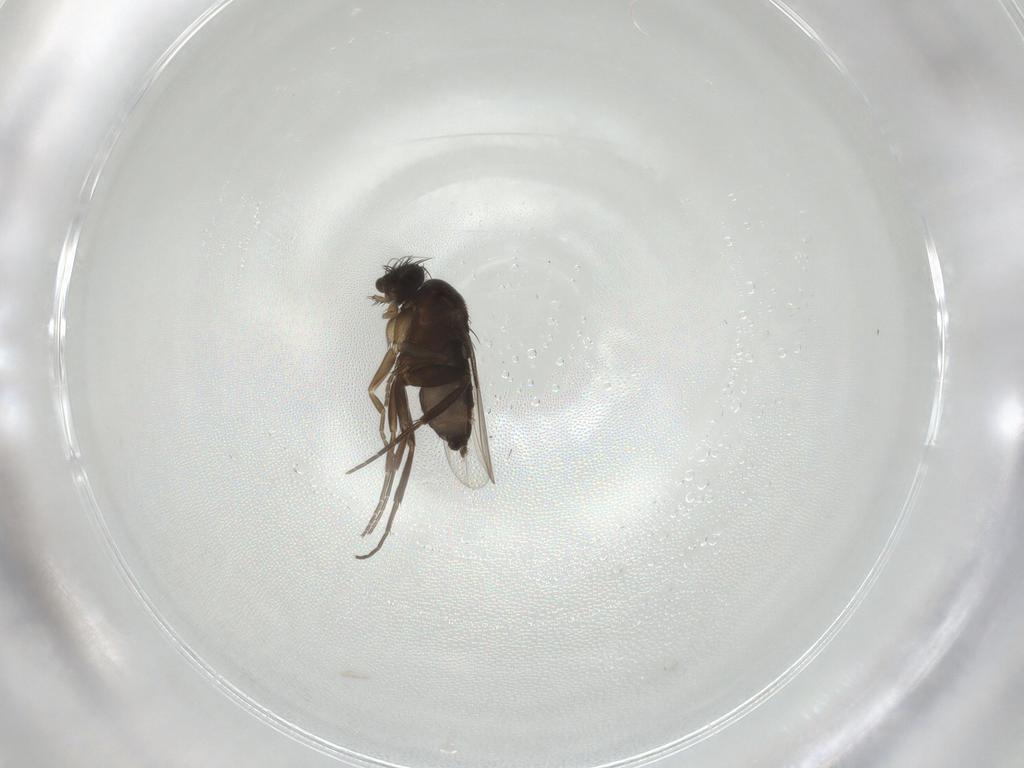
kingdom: Animalia
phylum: Arthropoda
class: Insecta
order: Diptera
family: Phoridae
